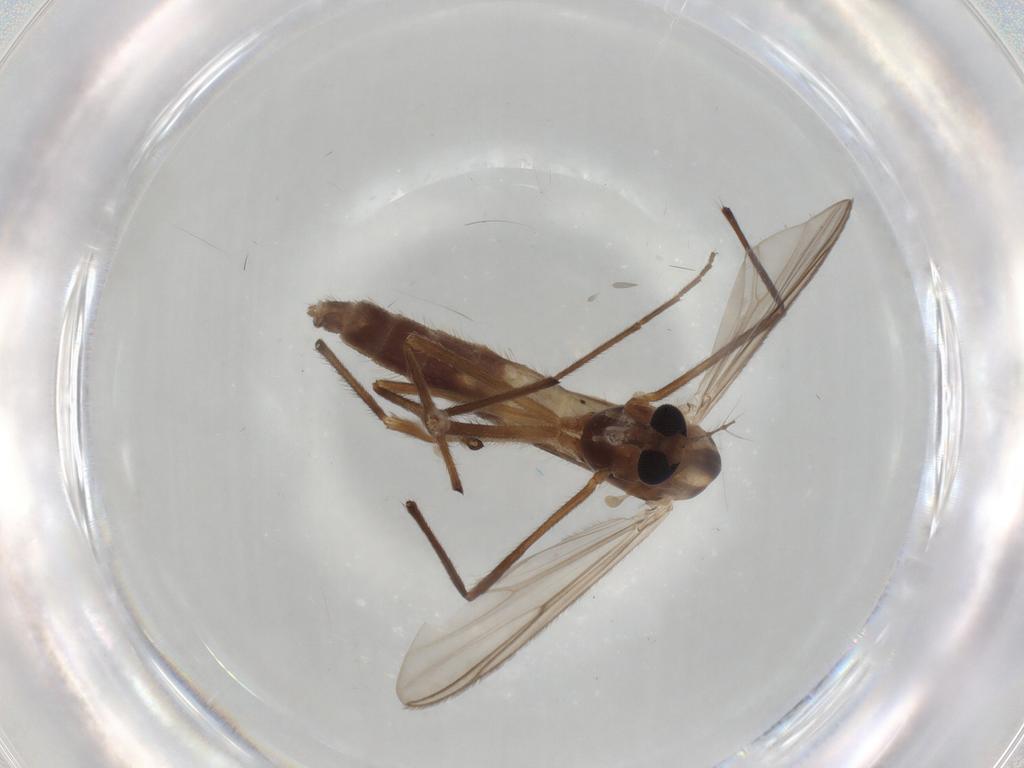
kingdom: Animalia
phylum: Arthropoda
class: Insecta
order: Diptera
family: Chironomidae
